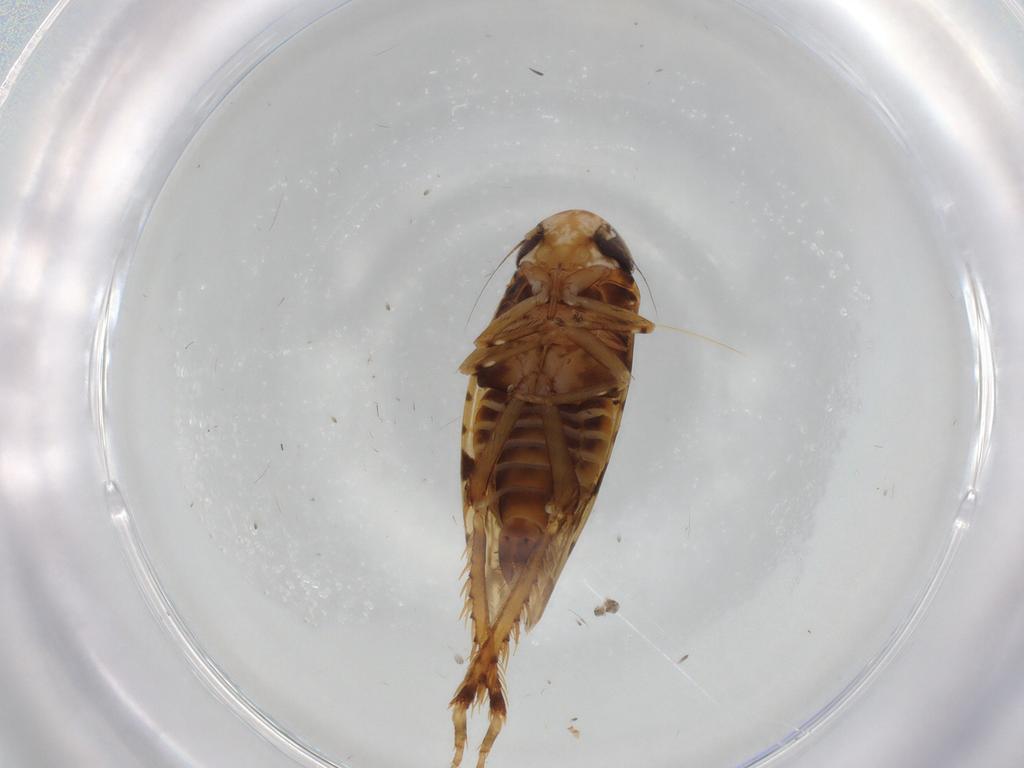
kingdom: Animalia
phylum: Arthropoda
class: Insecta
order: Hemiptera
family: Cicadellidae
